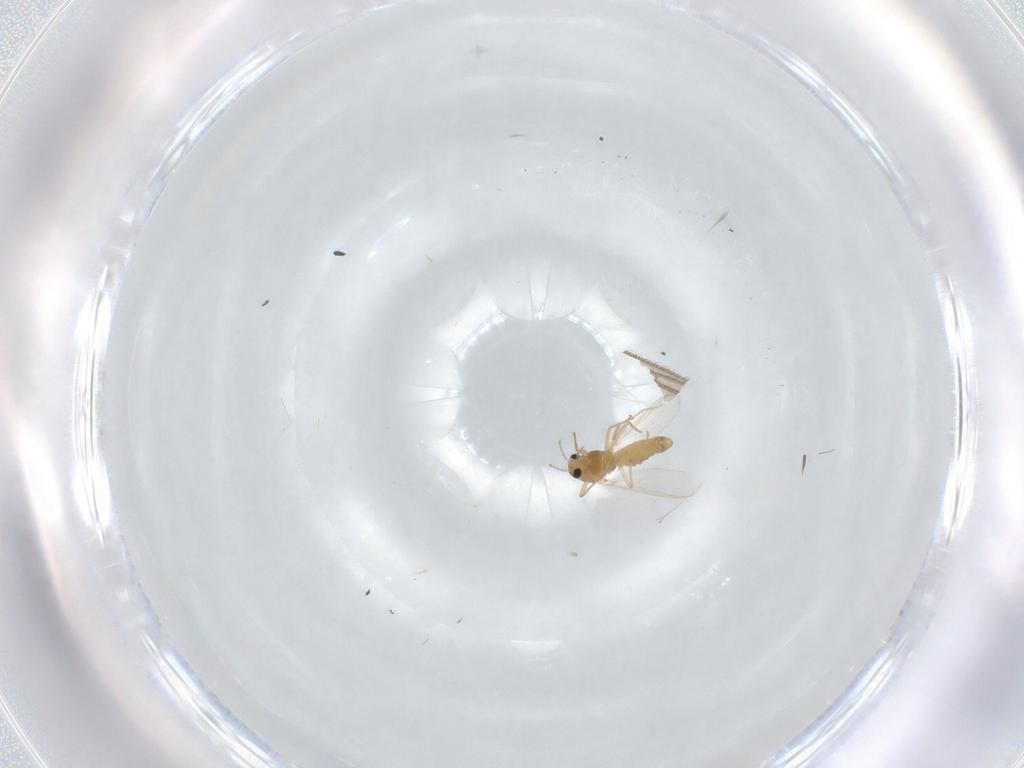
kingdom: Animalia
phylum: Arthropoda
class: Insecta
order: Diptera
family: Chironomidae
